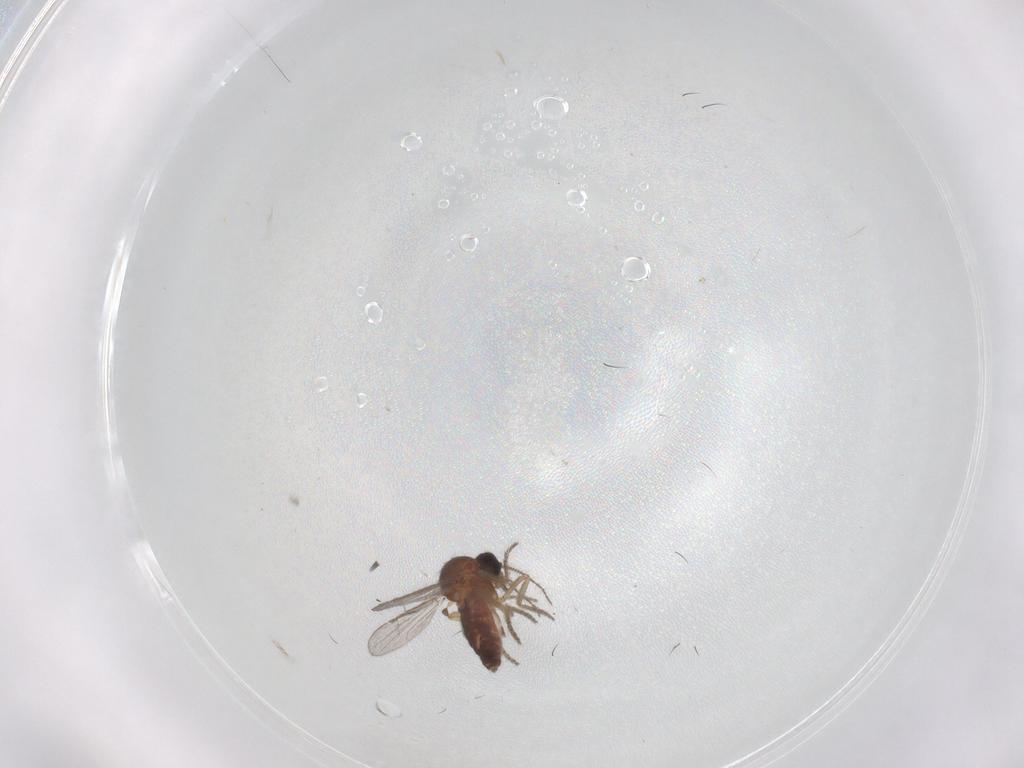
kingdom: Animalia
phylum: Arthropoda
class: Insecta
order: Diptera
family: Ceratopogonidae
